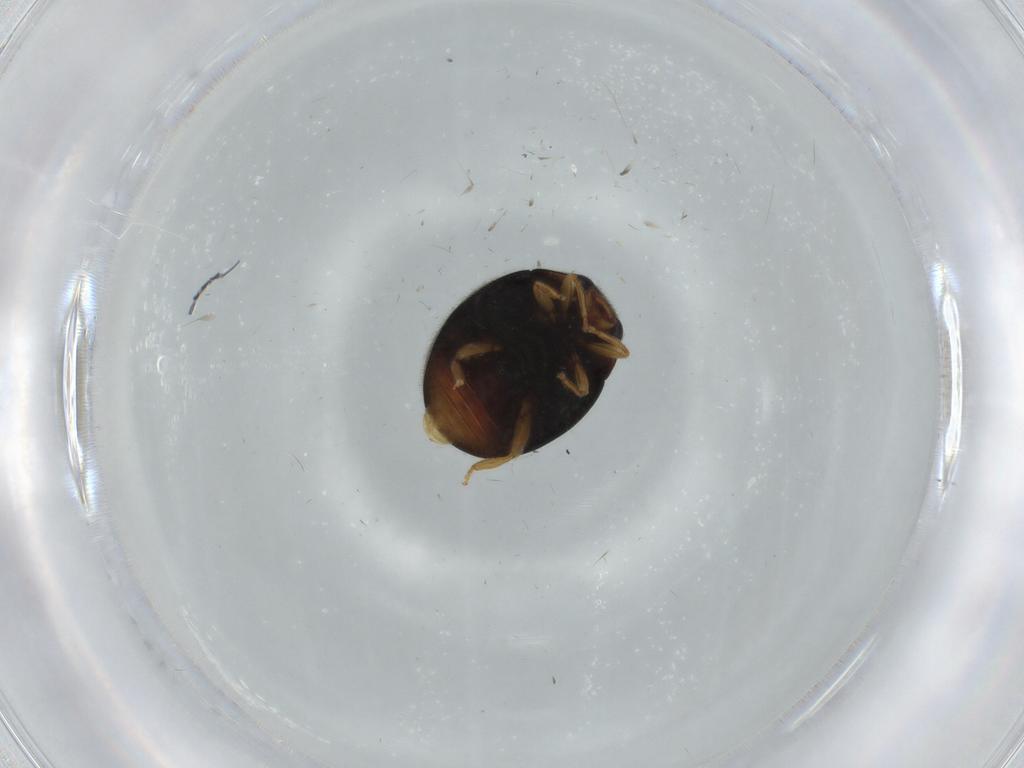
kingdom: Animalia
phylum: Arthropoda
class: Insecta
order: Coleoptera
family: Coccinellidae
